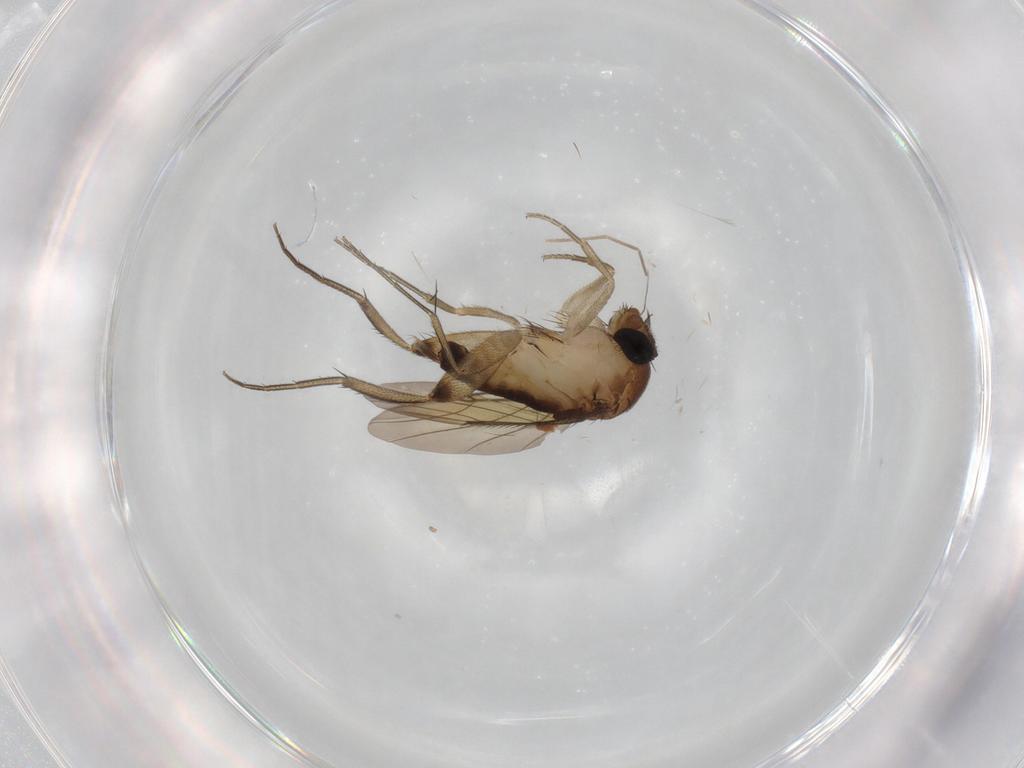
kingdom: Animalia
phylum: Arthropoda
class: Insecta
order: Diptera
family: Phoridae
